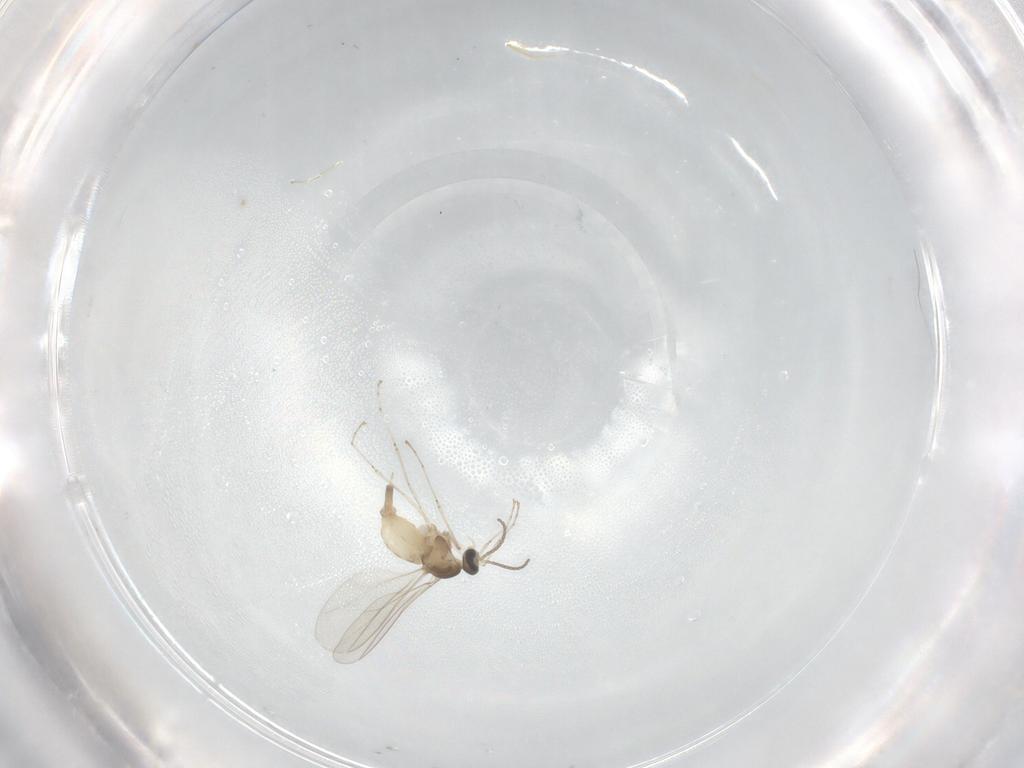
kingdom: Animalia
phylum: Arthropoda
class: Insecta
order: Diptera
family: Cecidomyiidae
